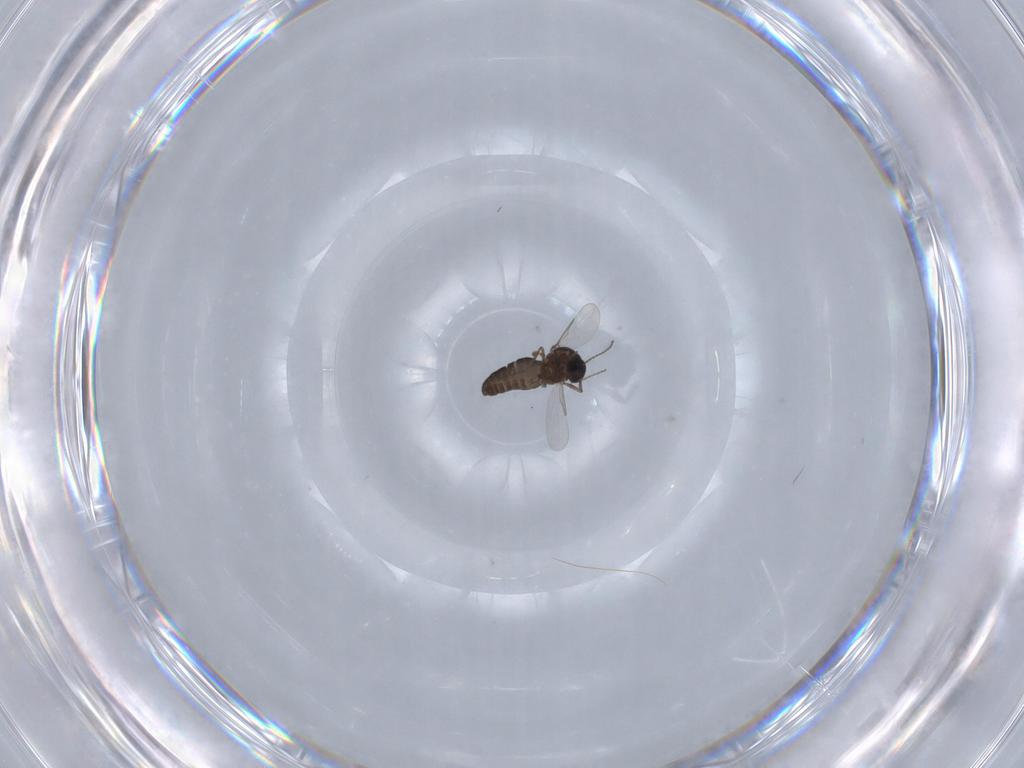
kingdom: Animalia
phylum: Arthropoda
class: Insecta
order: Diptera
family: Ceratopogonidae
